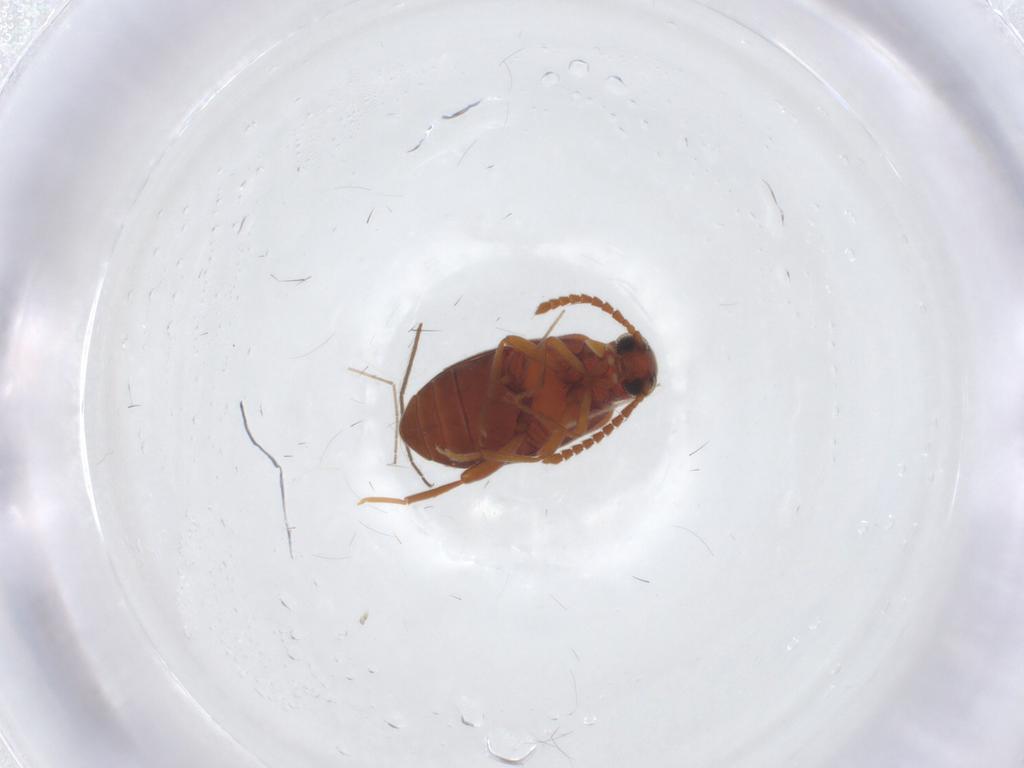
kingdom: Animalia
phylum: Arthropoda
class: Insecta
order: Coleoptera
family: Aderidae
